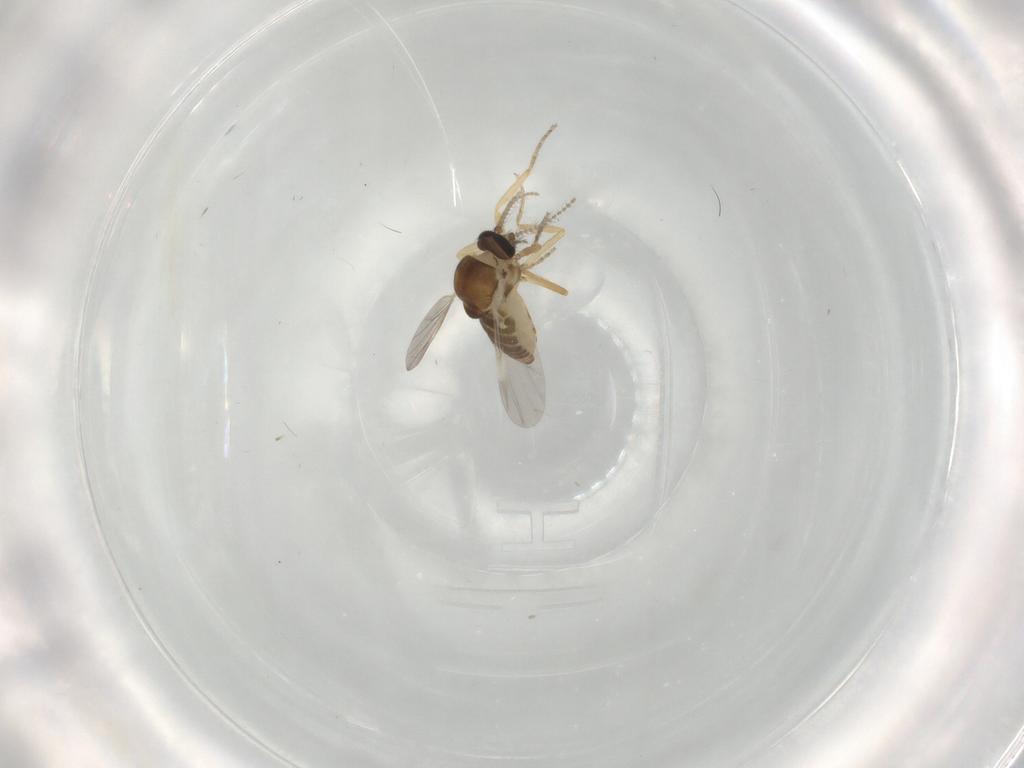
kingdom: Animalia
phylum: Arthropoda
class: Insecta
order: Diptera
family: Ceratopogonidae
